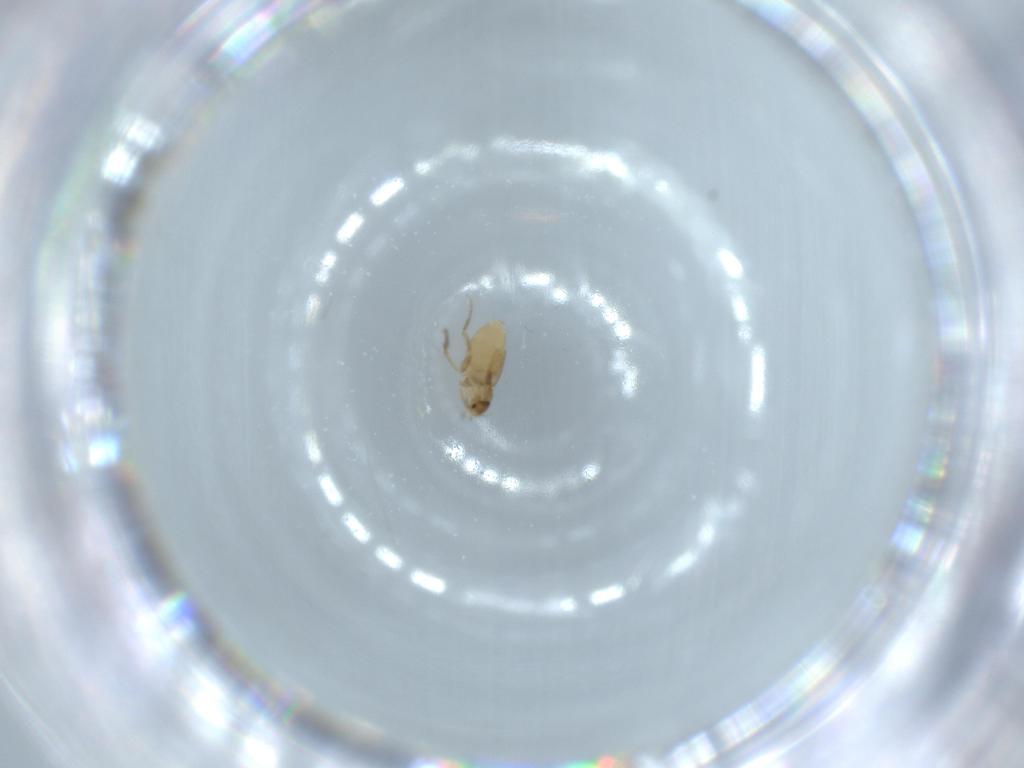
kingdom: Animalia
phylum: Arthropoda
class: Insecta
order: Diptera
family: Phoridae
